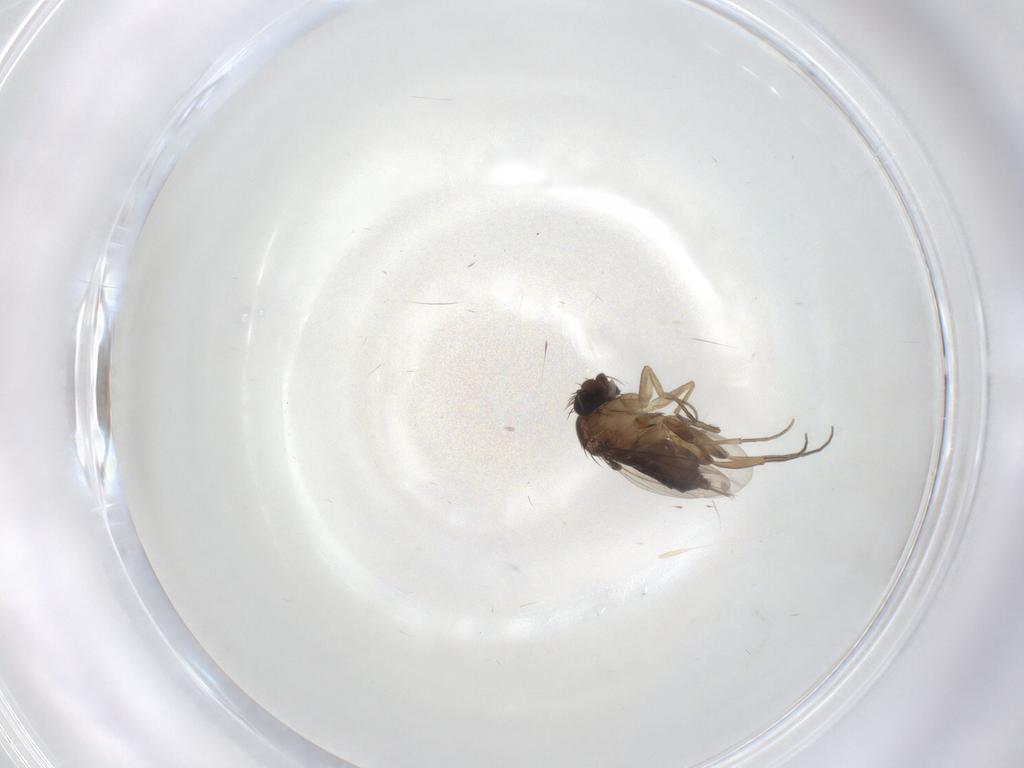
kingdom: Animalia
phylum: Arthropoda
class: Insecta
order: Diptera
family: Phoridae
